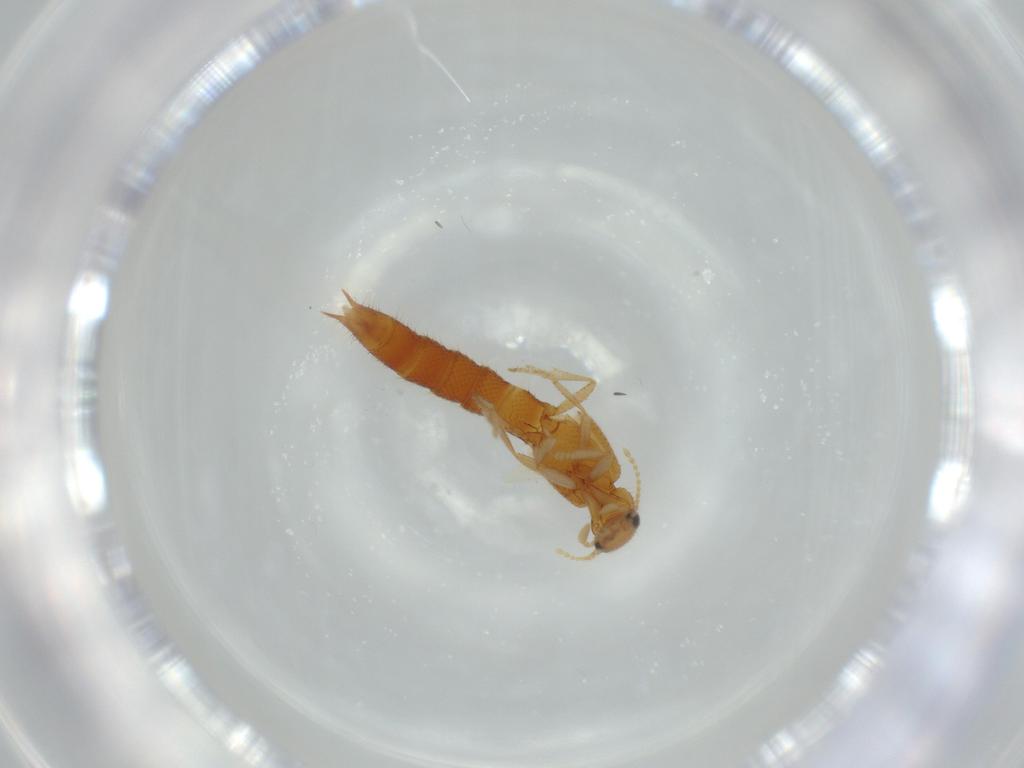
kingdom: Animalia
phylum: Arthropoda
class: Insecta
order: Coleoptera
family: Staphylinidae
